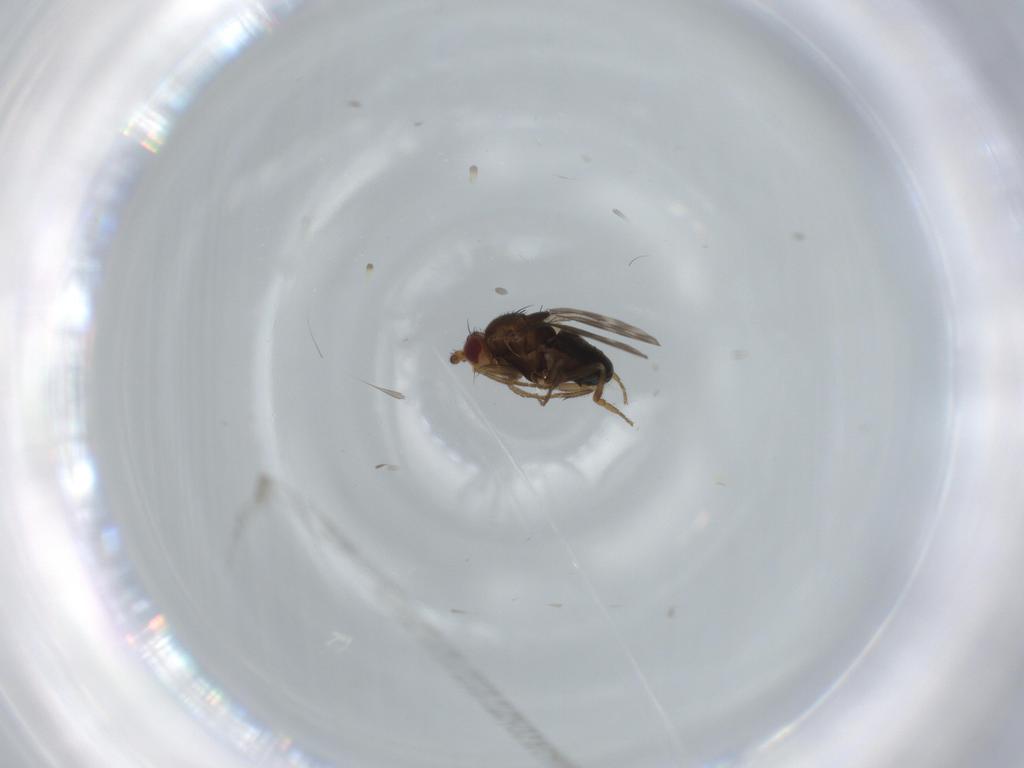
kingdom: Animalia
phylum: Arthropoda
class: Insecta
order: Diptera
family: Sphaeroceridae
